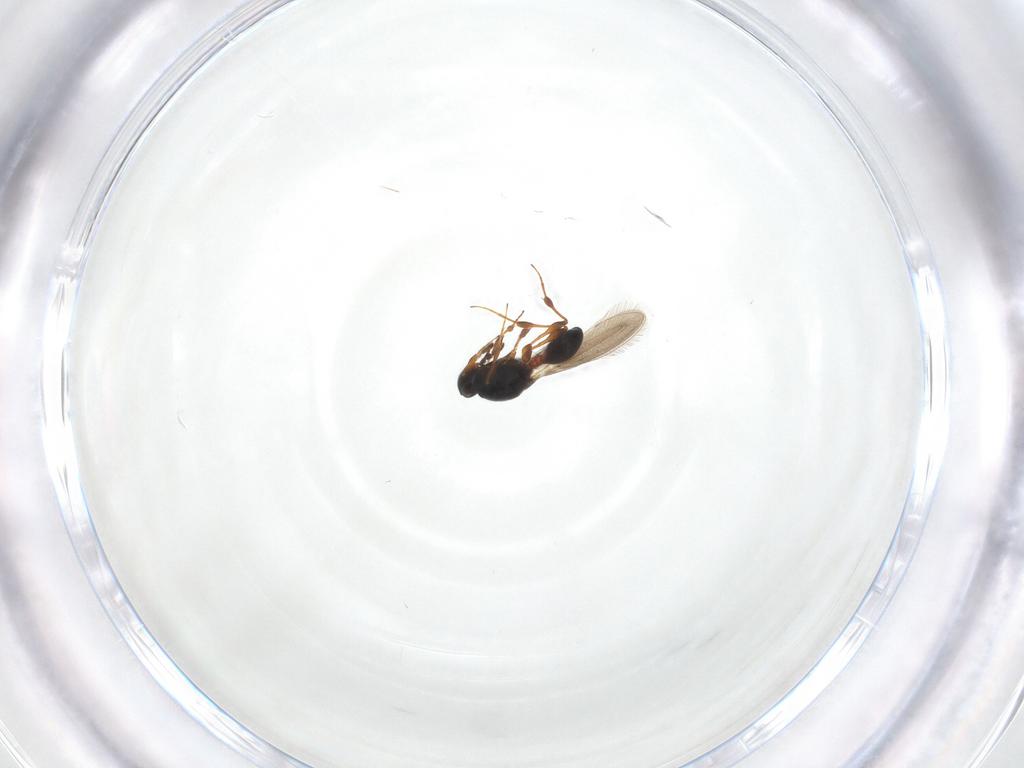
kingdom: Animalia
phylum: Arthropoda
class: Insecta
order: Hymenoptera
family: Platygastridae
